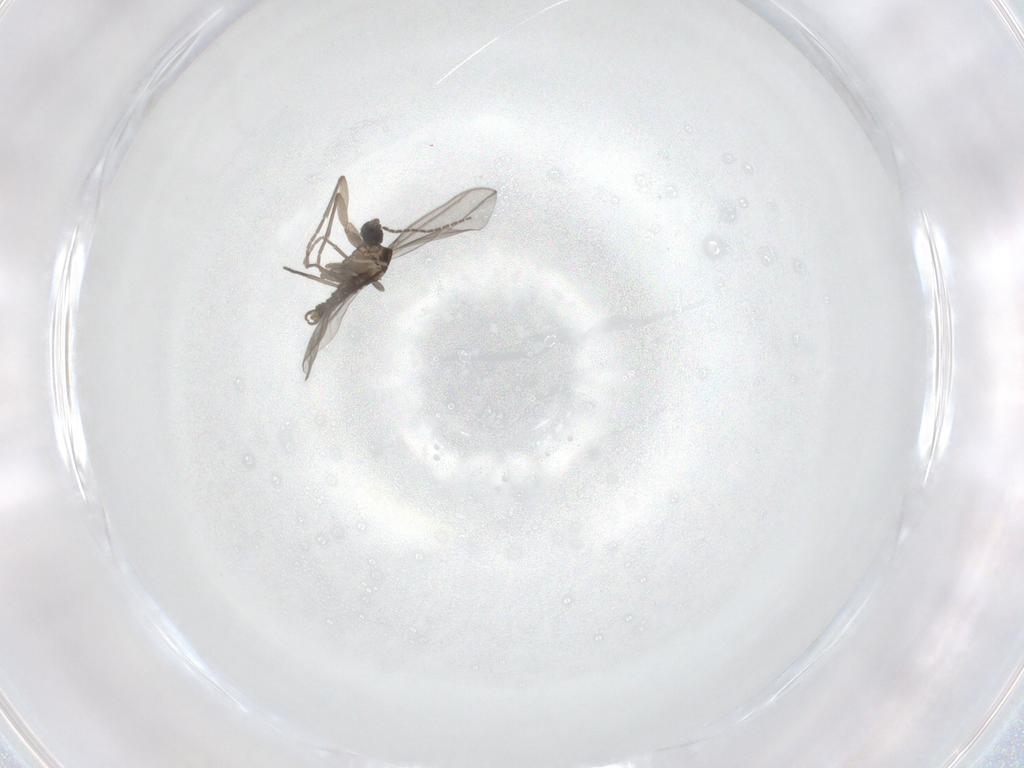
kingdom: Animalia
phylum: Arthropoda
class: Insecta
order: Diptera
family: Sciaridae
